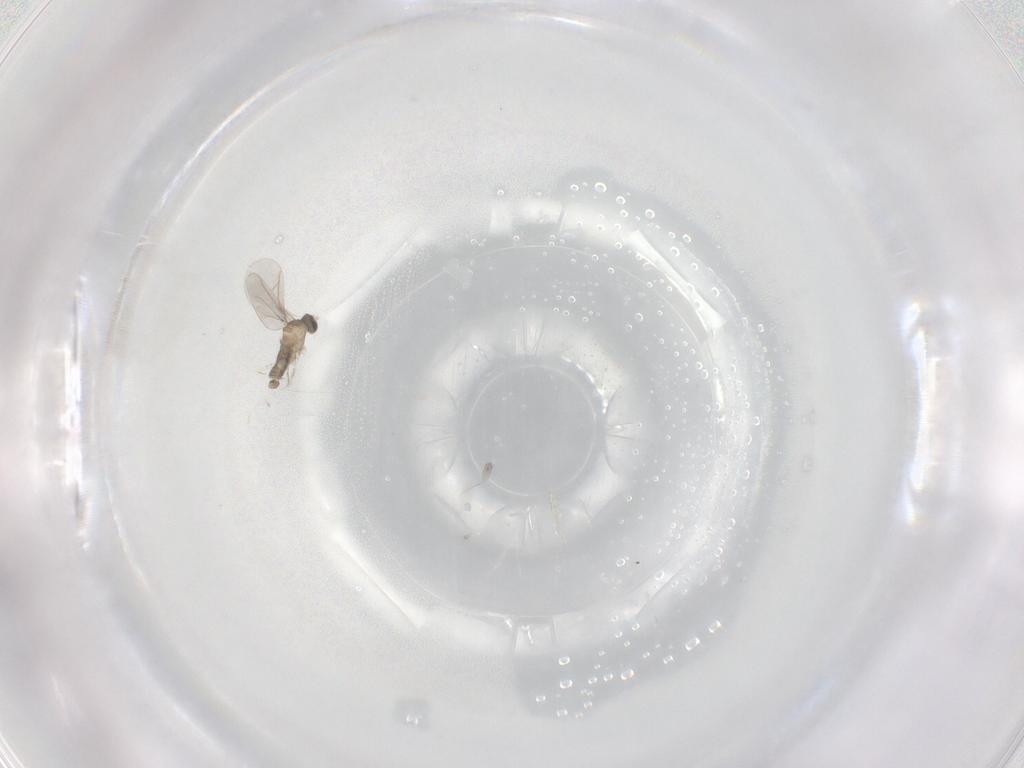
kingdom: Animalia
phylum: Arthropoda
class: Insecta
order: Diptera
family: Cecidomyiidae
